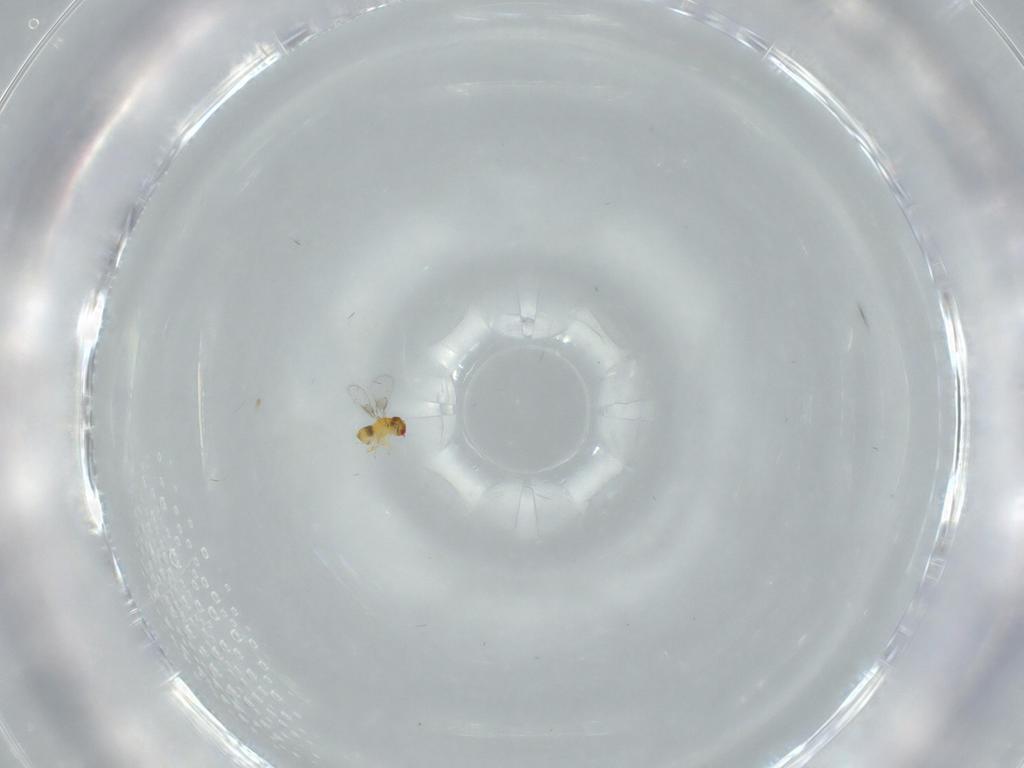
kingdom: Animalia
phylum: Arthropoda
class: Insecta
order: Hymenoptera
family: Trichogrammatidae
